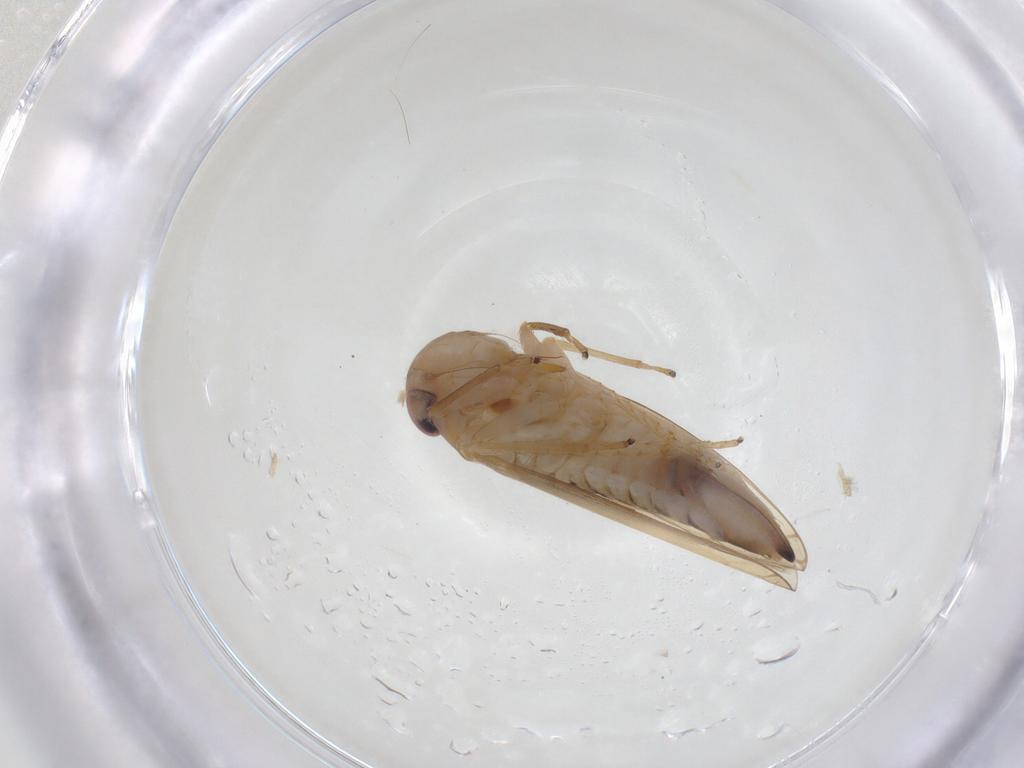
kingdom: Animalia
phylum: Arthropoda
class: Insecta
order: Hemiptera
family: Cicadellidae
